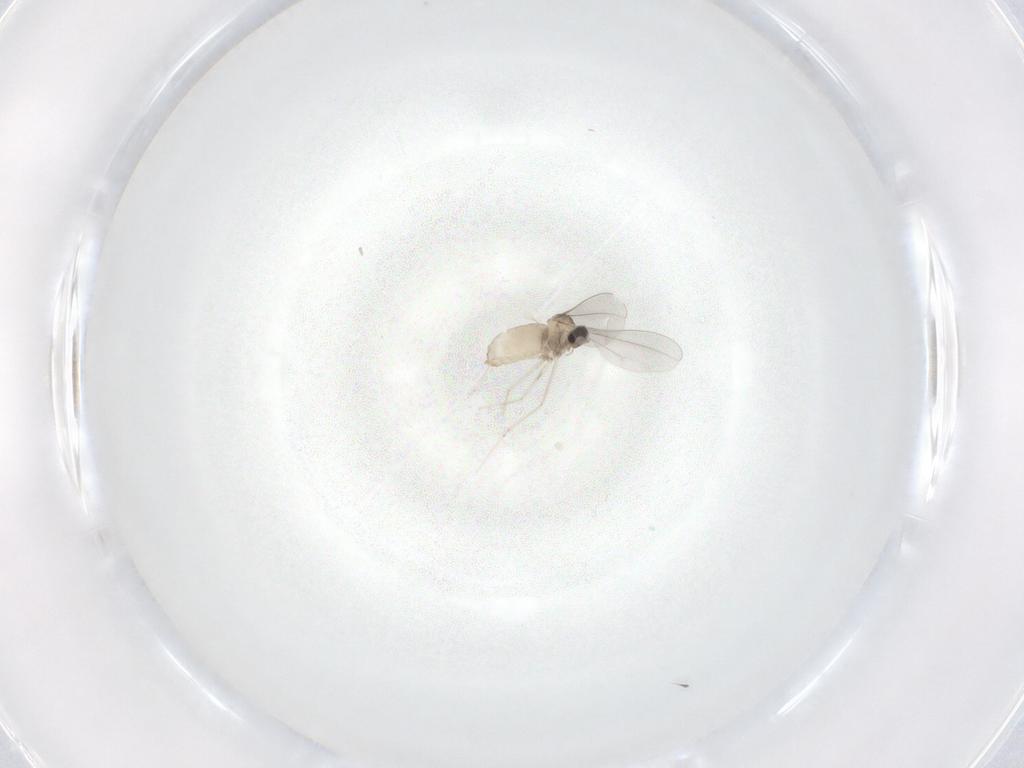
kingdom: Animalia
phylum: Arthropoda
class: Insecta
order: Diptera
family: Cecidomyiidae
